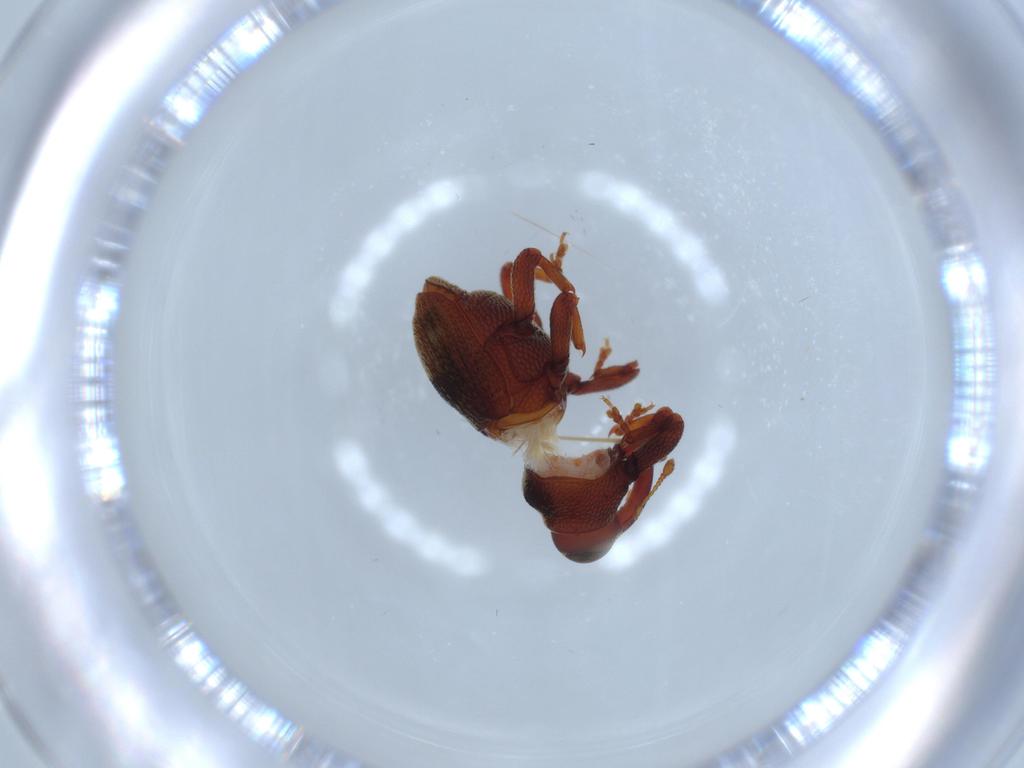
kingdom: Animalia
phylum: Arthropoda
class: Insecta
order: Coleoptera
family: Curculionidae
